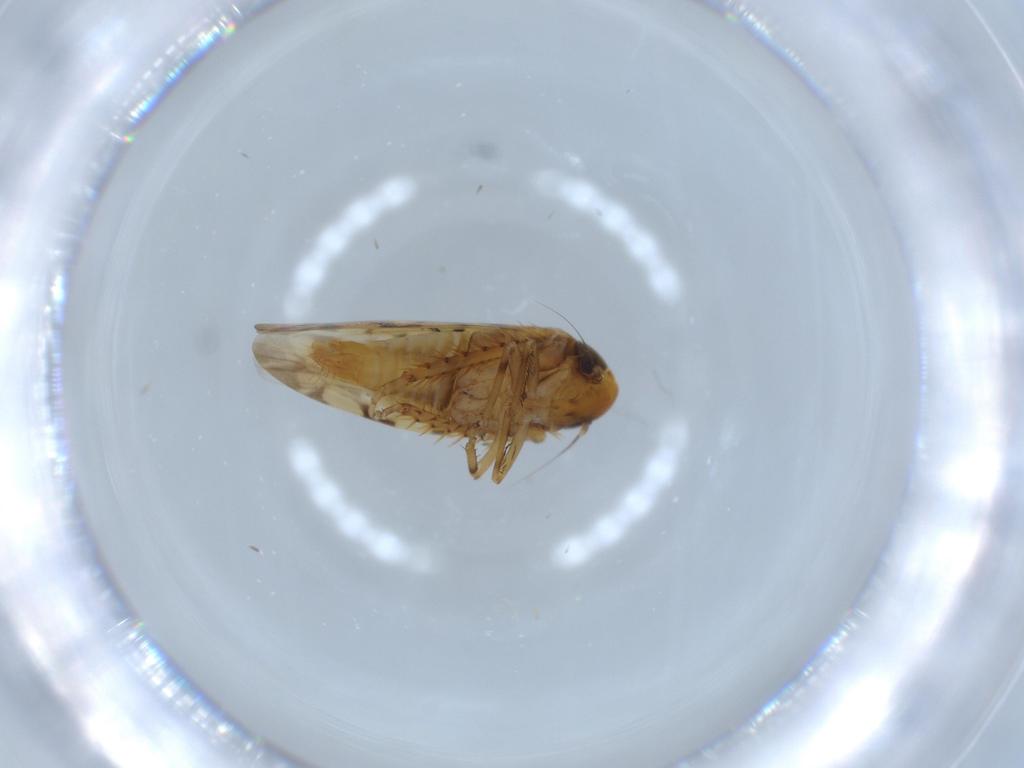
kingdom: Animalia
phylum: Arthropoda
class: Insecta
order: Hemiptera
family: Cicadellidae
